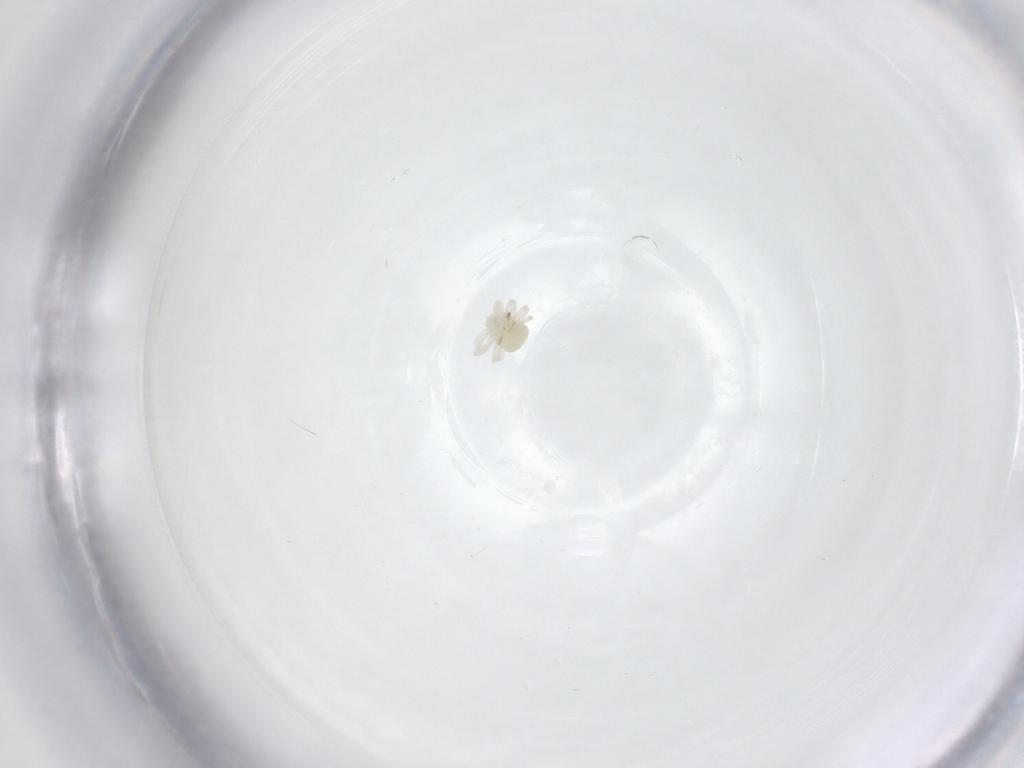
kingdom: Animalia
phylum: Arthropoda
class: Arachnida
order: Trombidiformes
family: Anystidae
